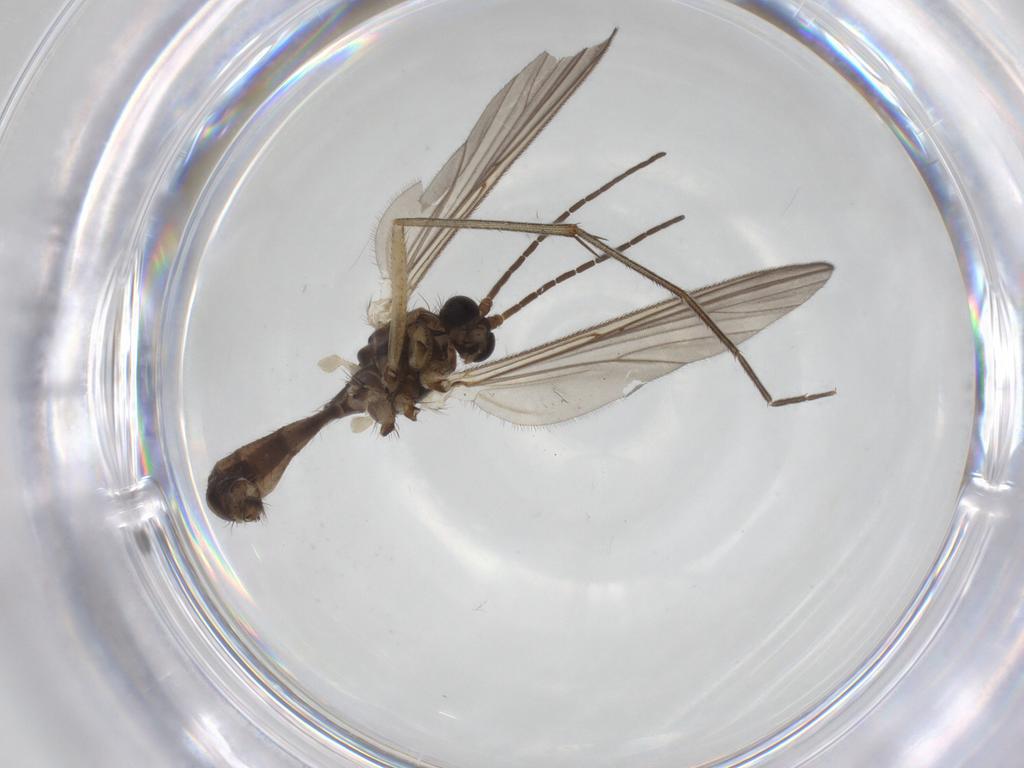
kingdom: Animalia
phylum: Arthropoda
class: Insecta
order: Diptera
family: Mycetophilidae
